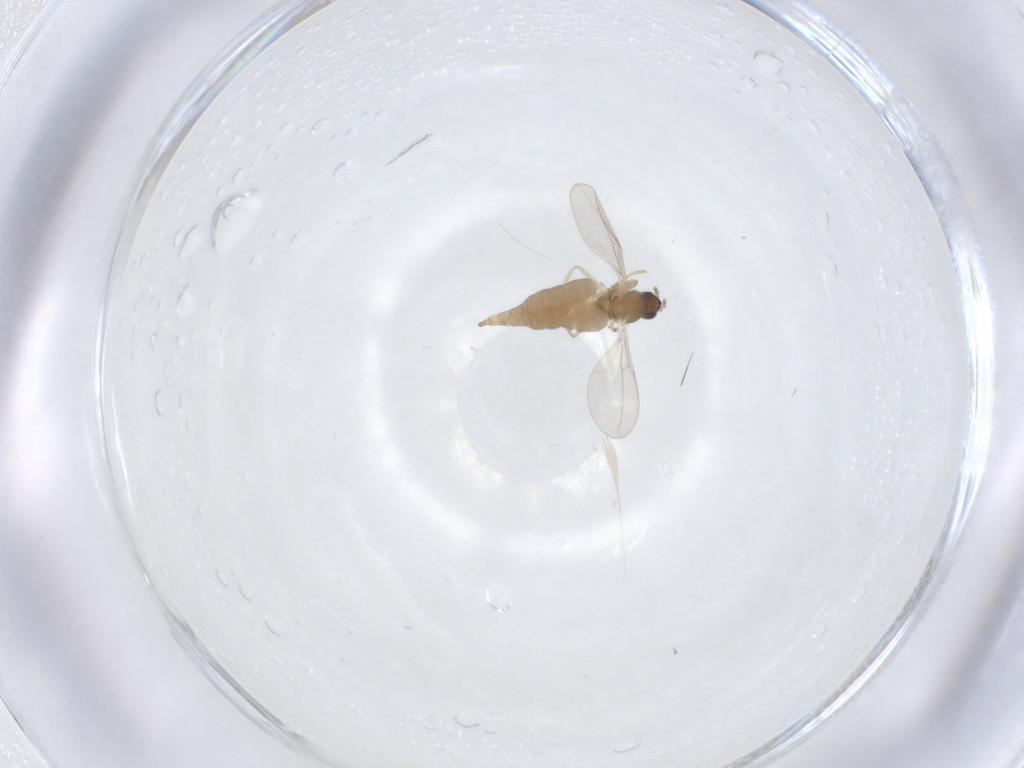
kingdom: Animalia
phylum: Arthropoda
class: Insecta
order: Diptera
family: Cecidomyiidae
